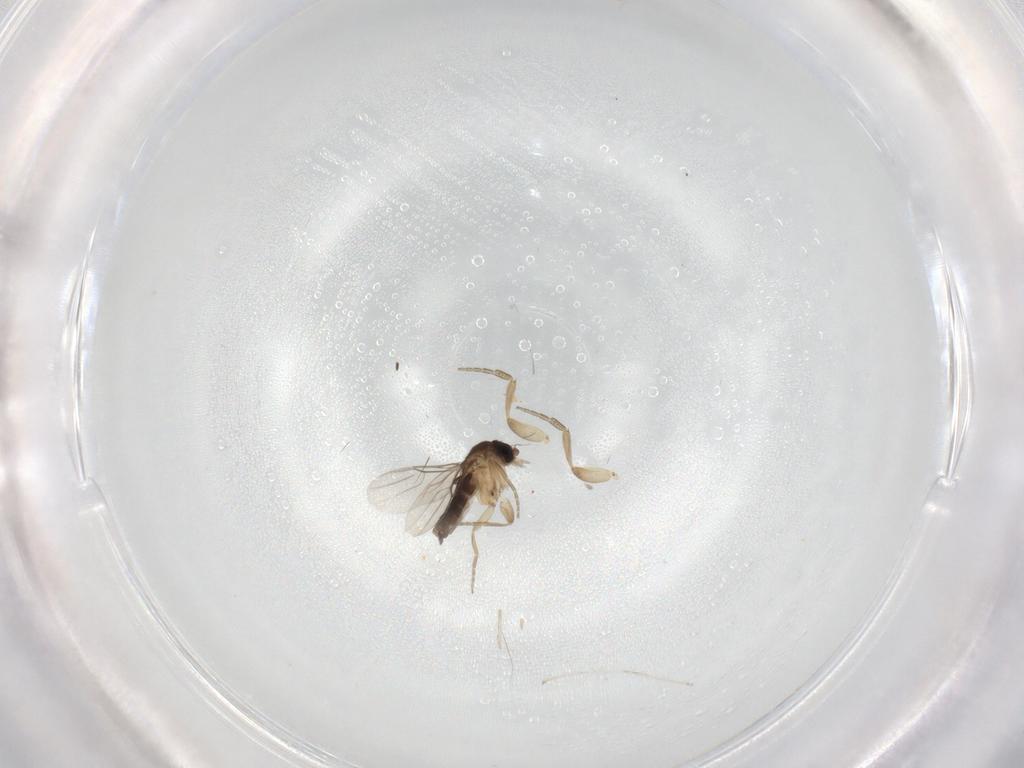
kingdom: Animalia
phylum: Arthropoda
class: Insecta
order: Diptera
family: Phoridae
